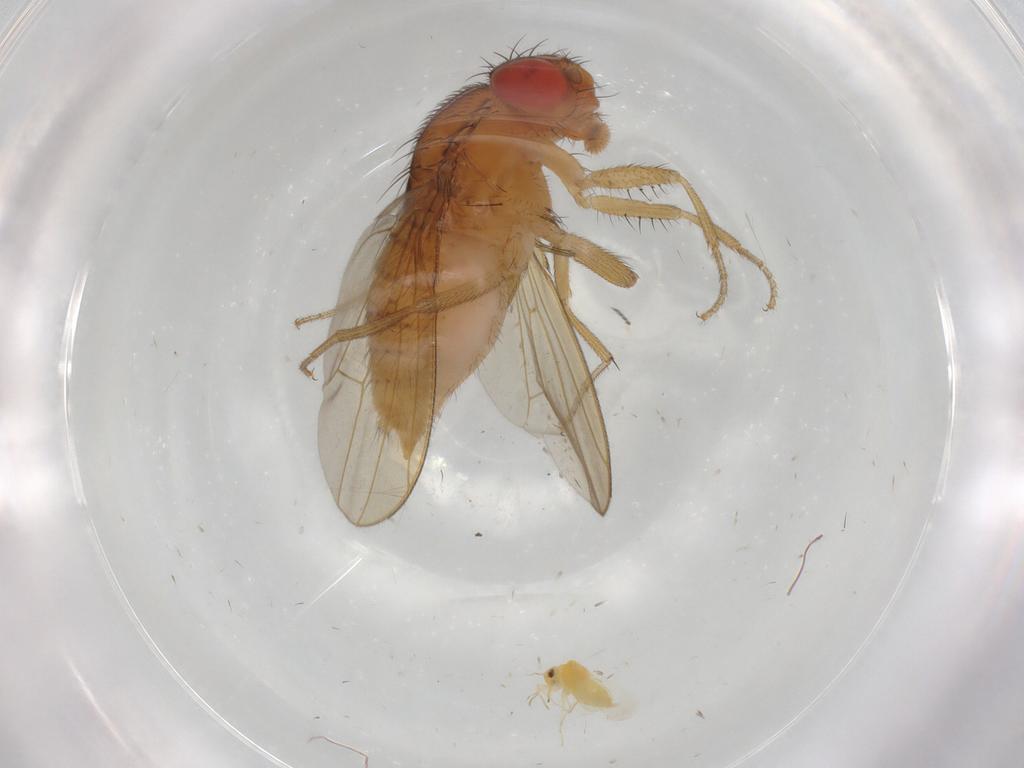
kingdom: Animalia
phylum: Arthropoda
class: Insecta
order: Diptera
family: Drosophilidae
